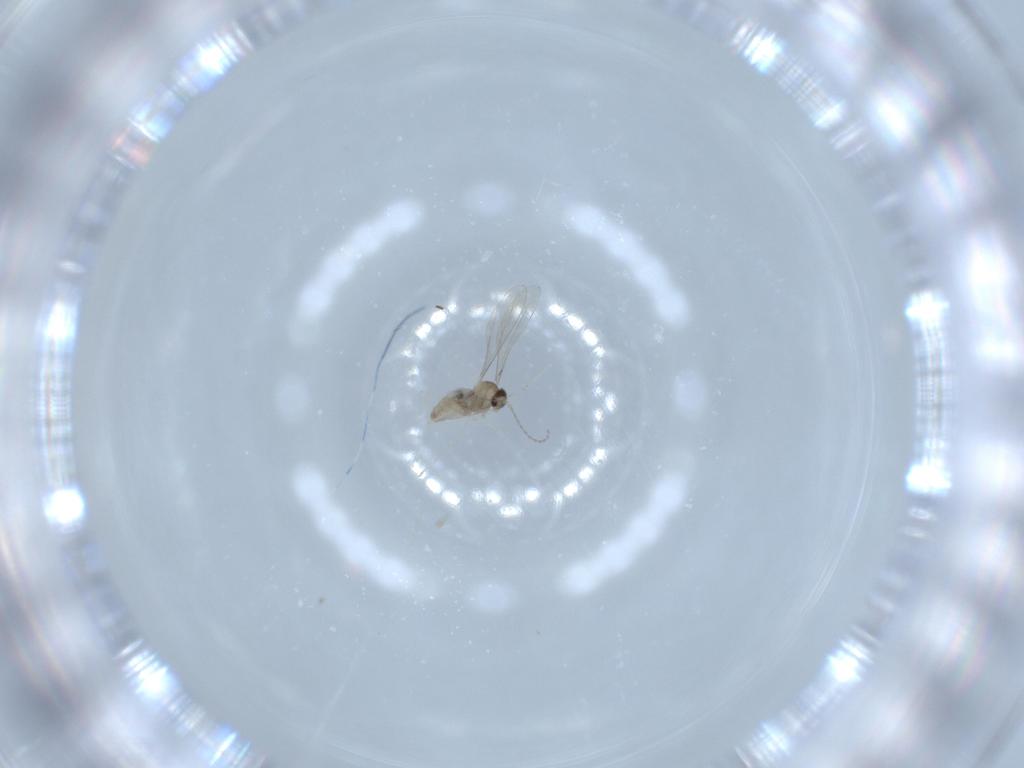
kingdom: Animalia
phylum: Arthropoda
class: Insecta
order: Diptera
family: Cecidomyiidae
